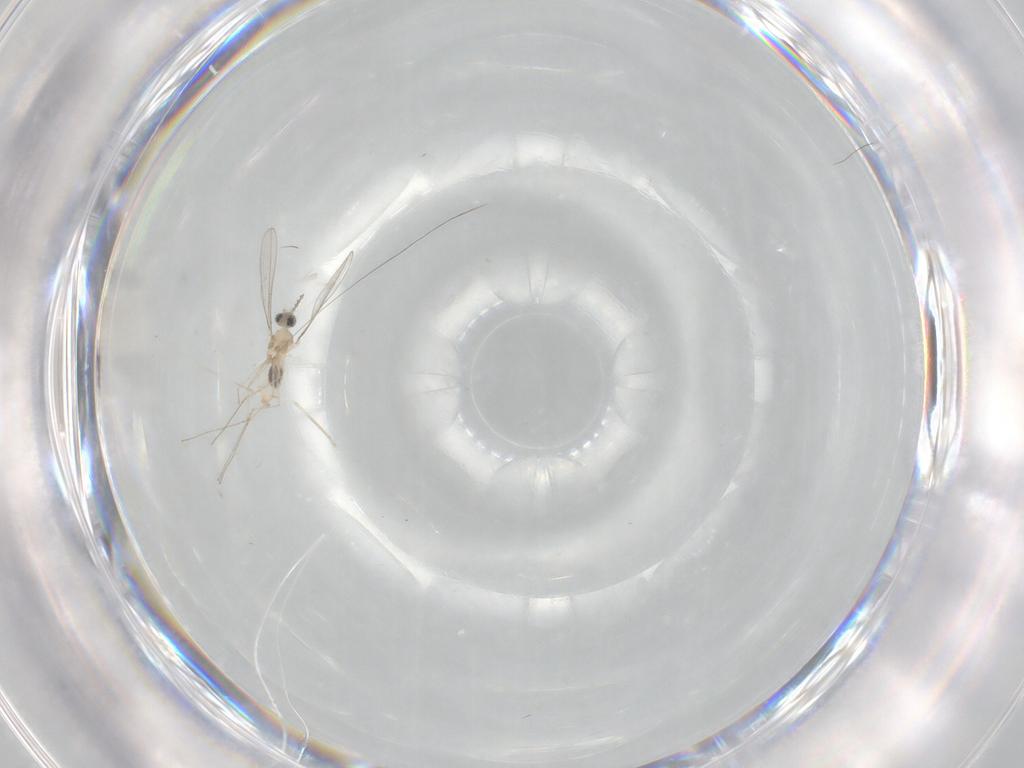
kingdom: Animalia
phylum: Arthropoda
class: Insecta
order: Diptera
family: Cecidomyiidae
